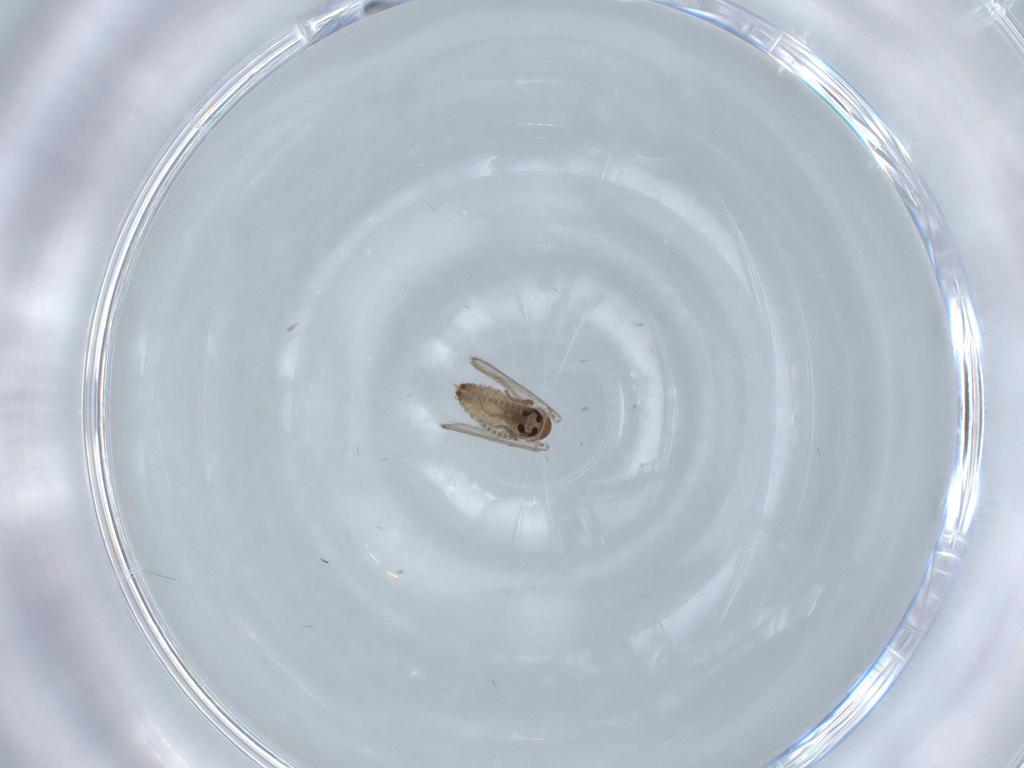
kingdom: Animalia
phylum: Arthropoda
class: Insecta
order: Diptera
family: Psychodidae
